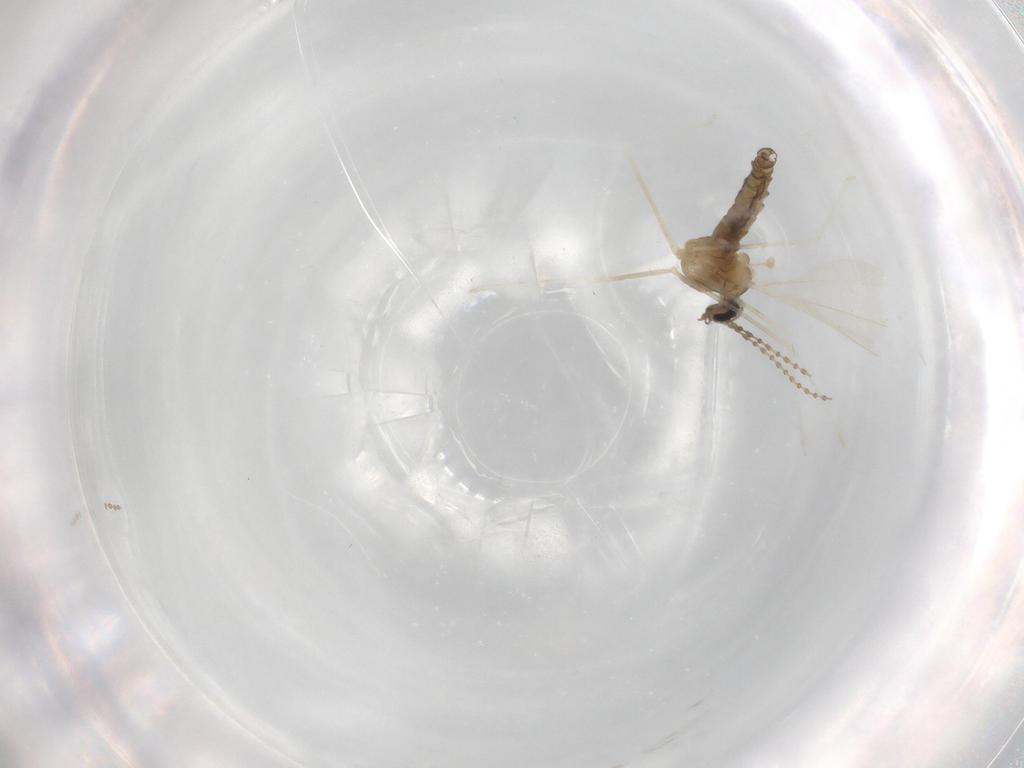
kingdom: Animalia
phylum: Arthropoda
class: Insecta
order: Diptera
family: Cecidomyiidae
